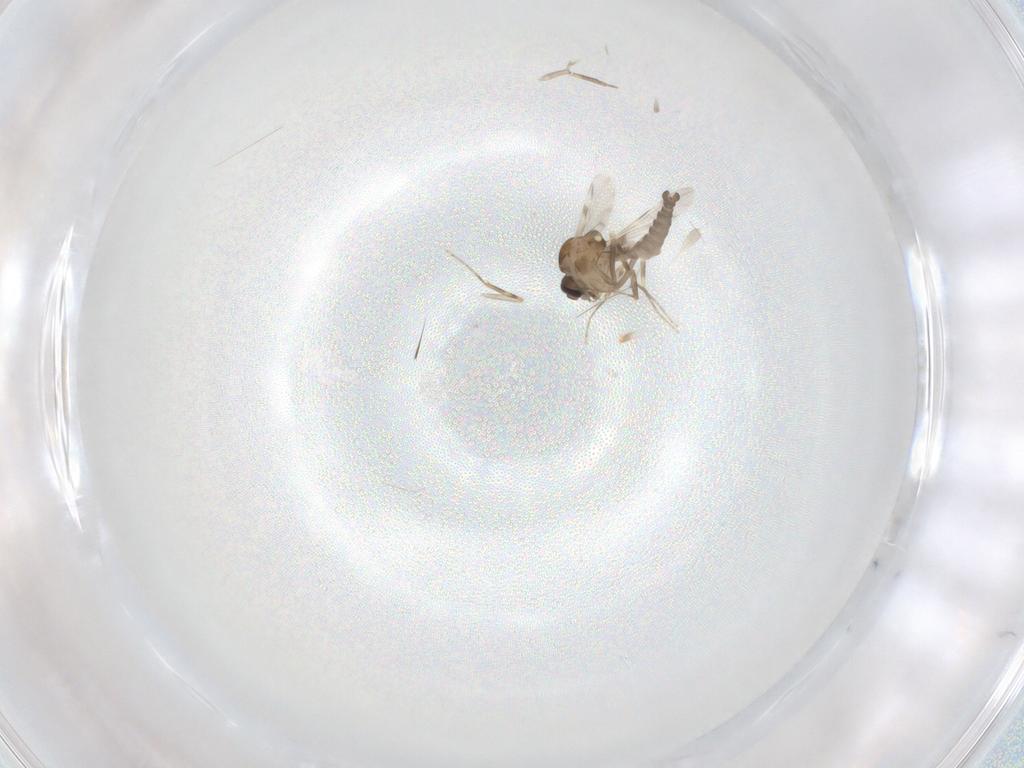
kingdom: Animalia
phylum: Arthropoda
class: Insecta
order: Diptera
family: Ceratopogonidae
